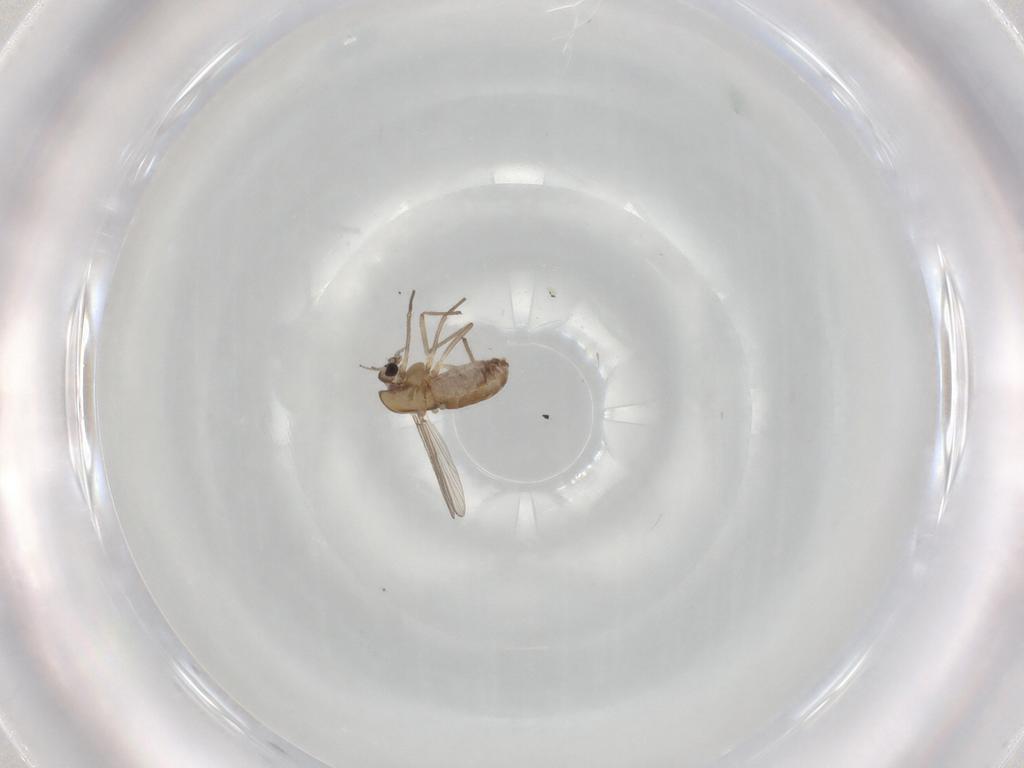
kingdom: Animalia
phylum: Arthropoda
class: Insecta
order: Diptera
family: Chironomidae
